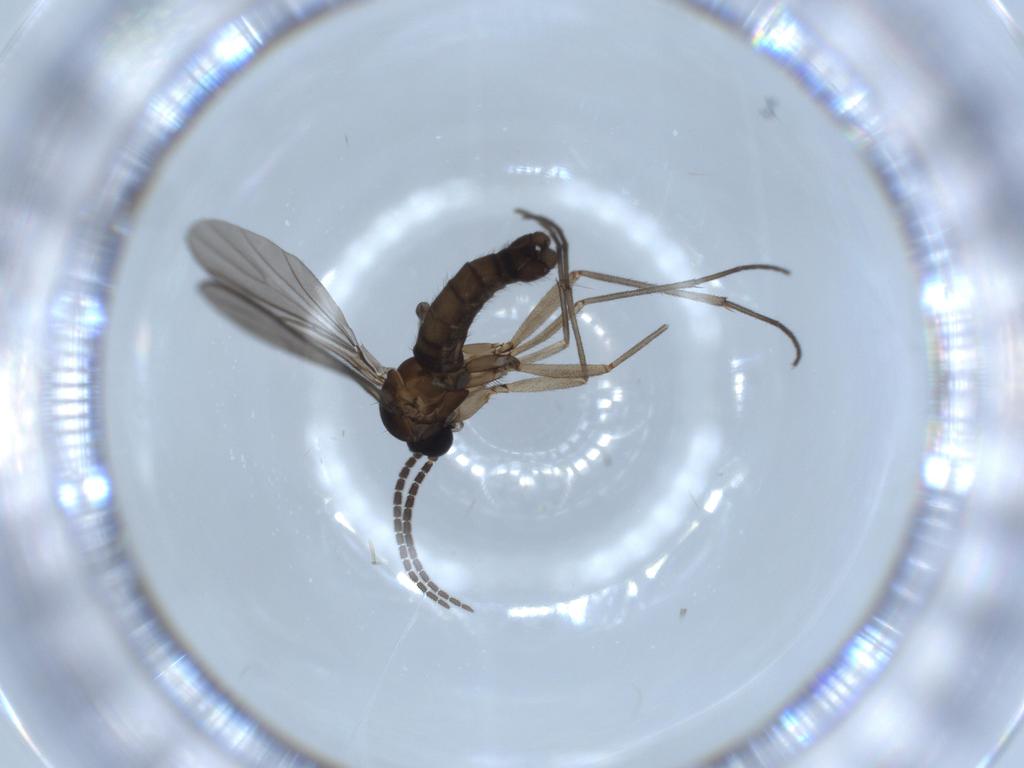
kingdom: Animalia
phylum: Arthropoda
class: Insecta
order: Diptera
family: Sciaridae
